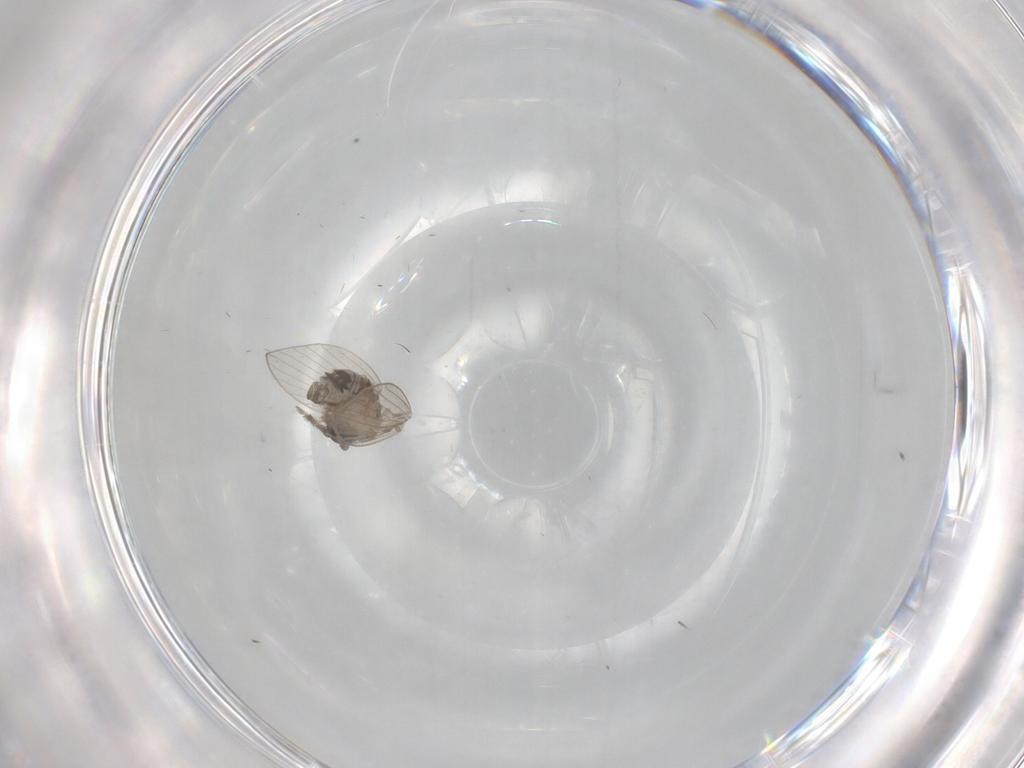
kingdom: Animalia
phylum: Arthropoda
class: Insecta
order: Diptera
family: Psychodidae
